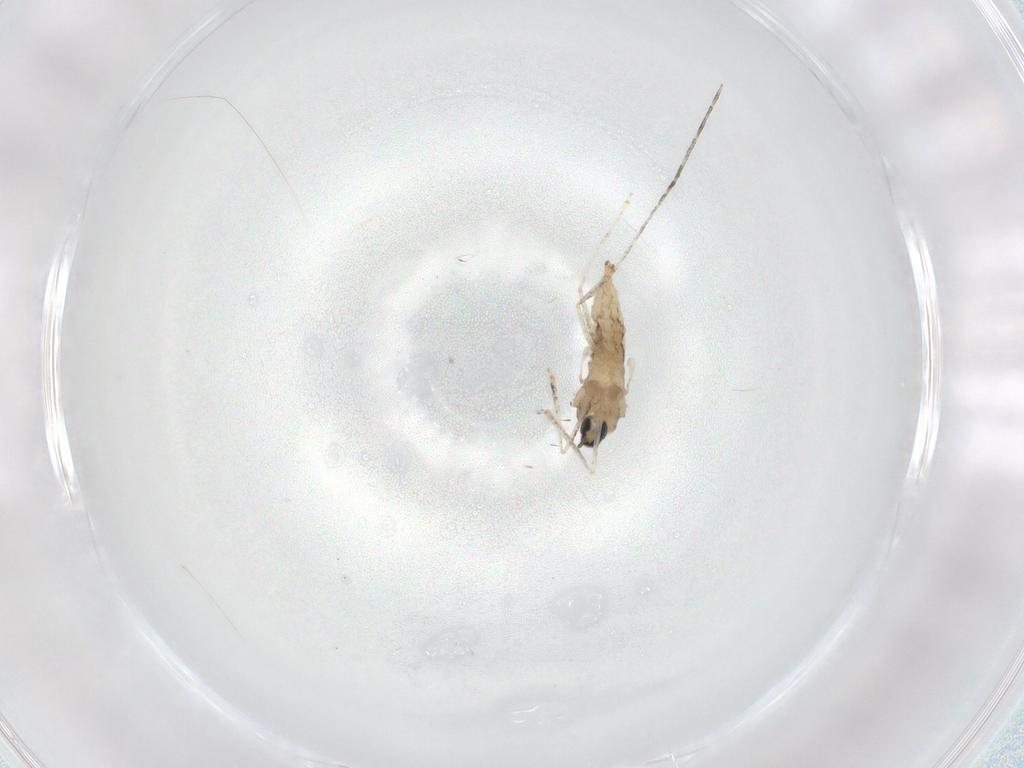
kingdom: Animalia
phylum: Arthropoda
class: Insecta
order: Diptera
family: Cecidomyiidae
